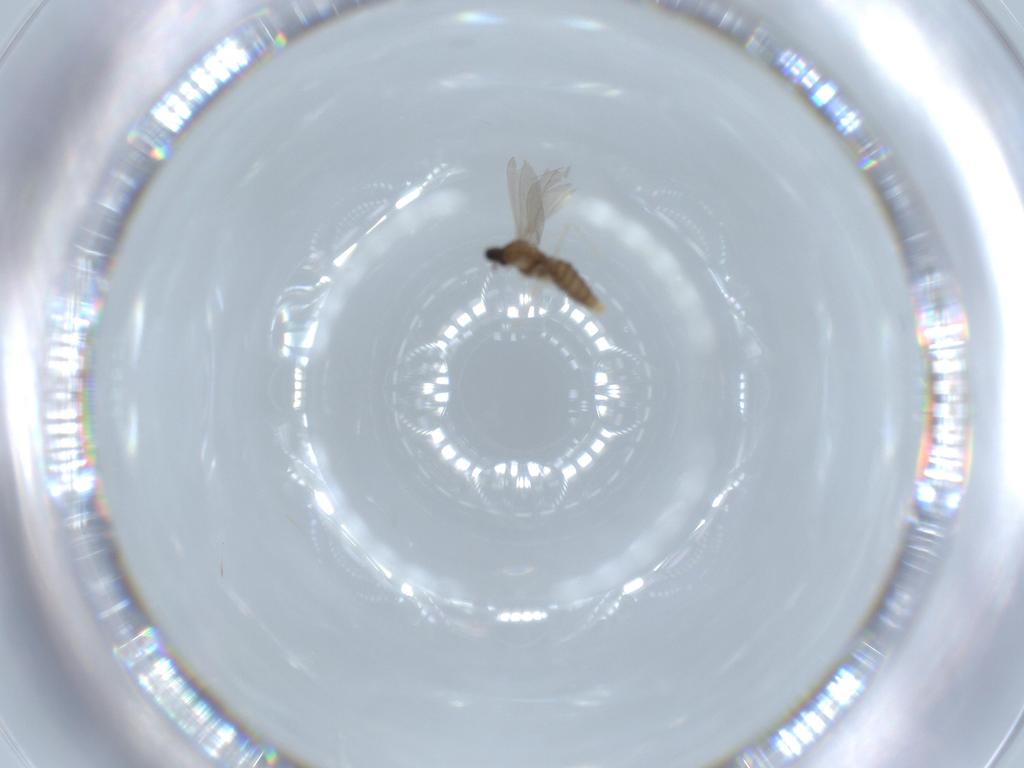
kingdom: Animalia
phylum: Arthropoda
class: Insecta
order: Diptera
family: Cecidomyiidae
